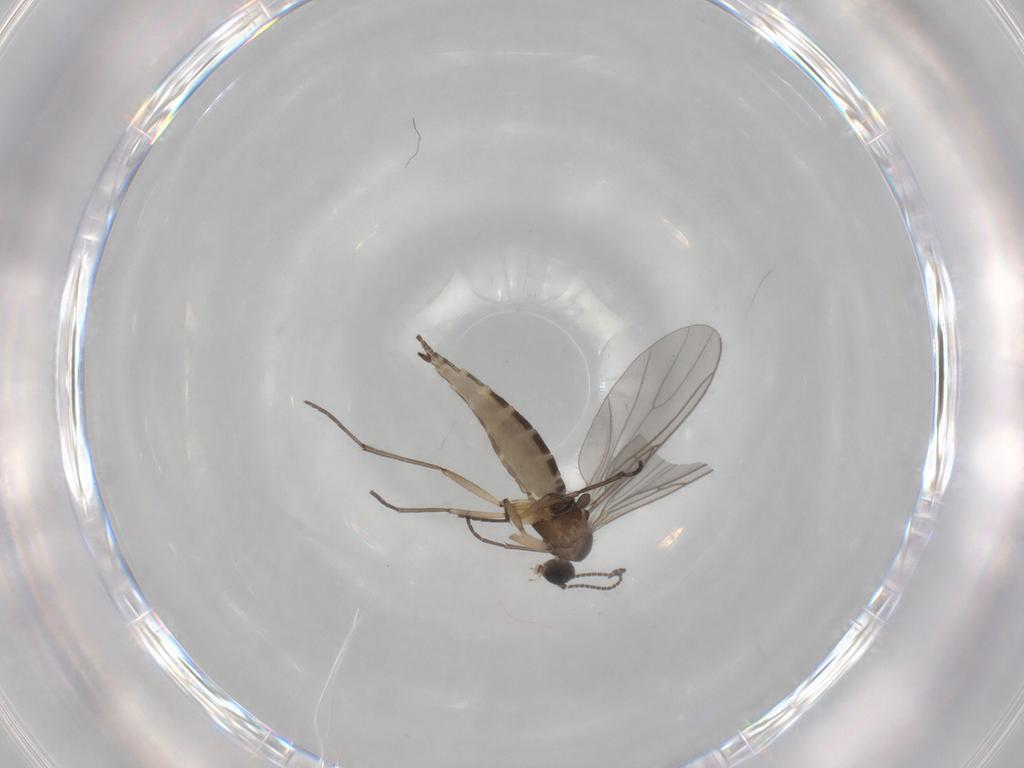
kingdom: Animalia
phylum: Arthropoda
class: Insecta
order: Diptera
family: Sciaridae
